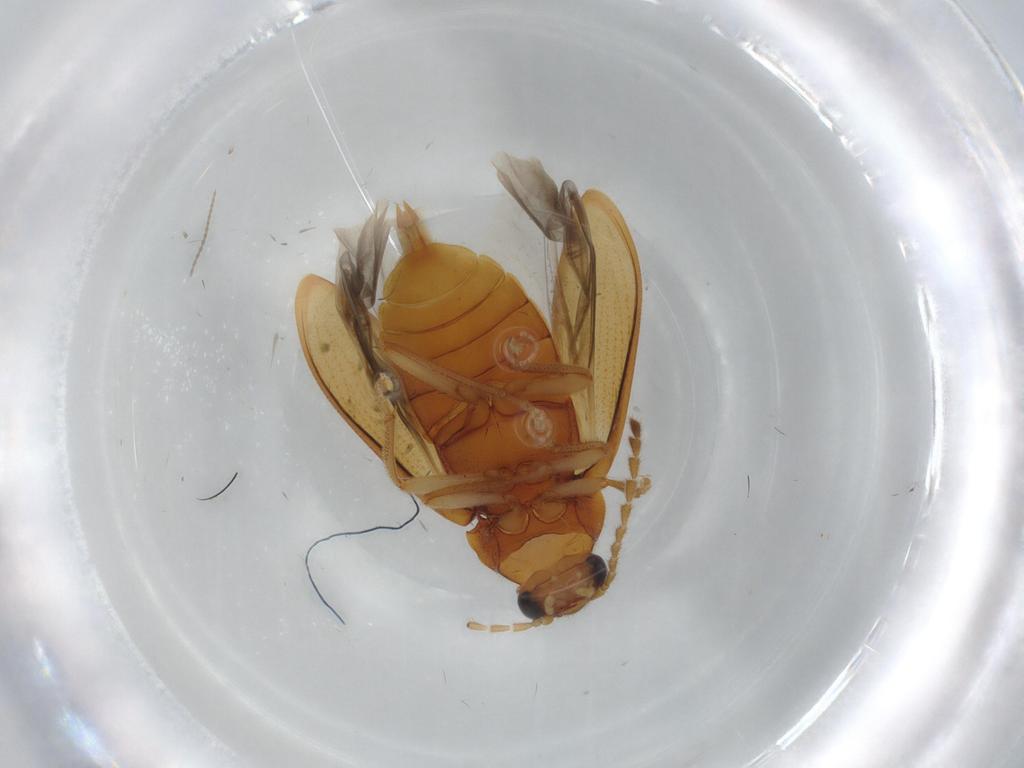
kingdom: Animalia
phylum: Arthropoda
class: Insecta
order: Coleoptera
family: Ptilodactylidae
